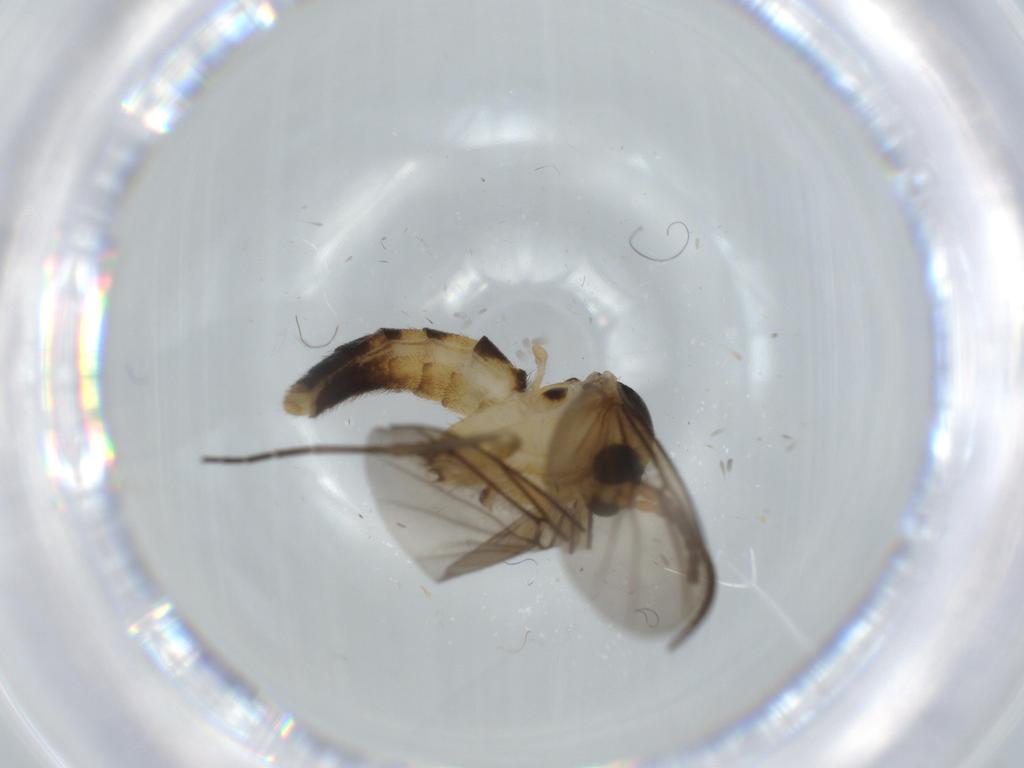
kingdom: Animalia
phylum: Arthropoda
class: Insecta
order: Diptera
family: Cecidomyiidae
